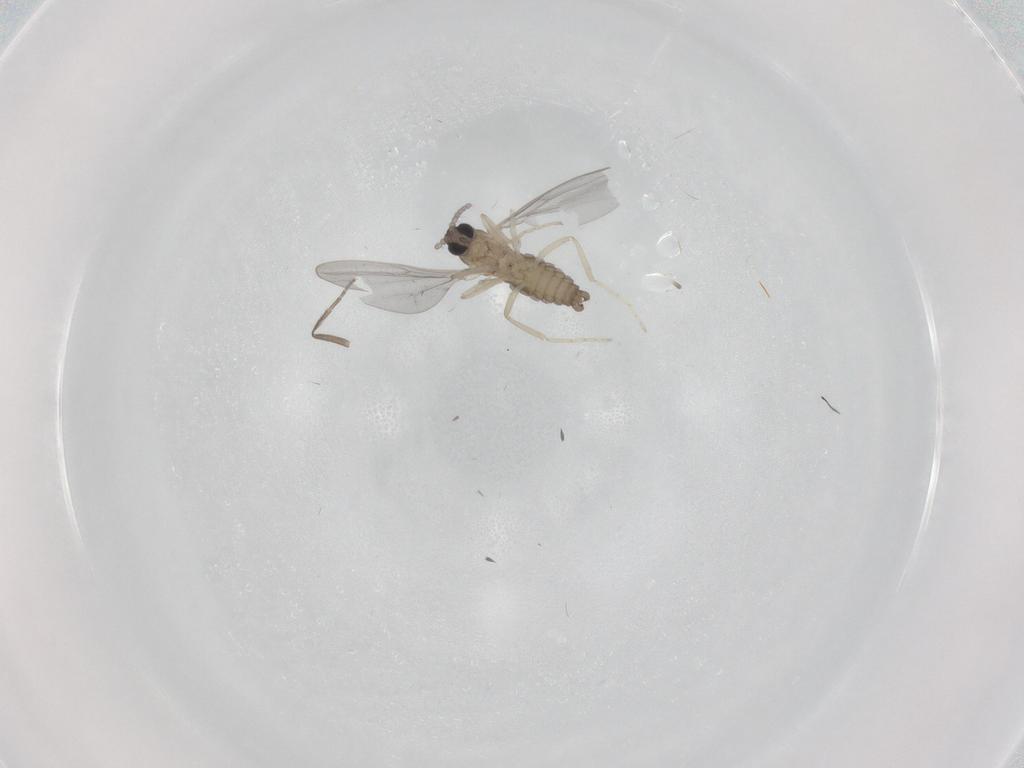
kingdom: Animalia
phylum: Arthropoda
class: Insecta
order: Diptera
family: Cecidomyiidae
